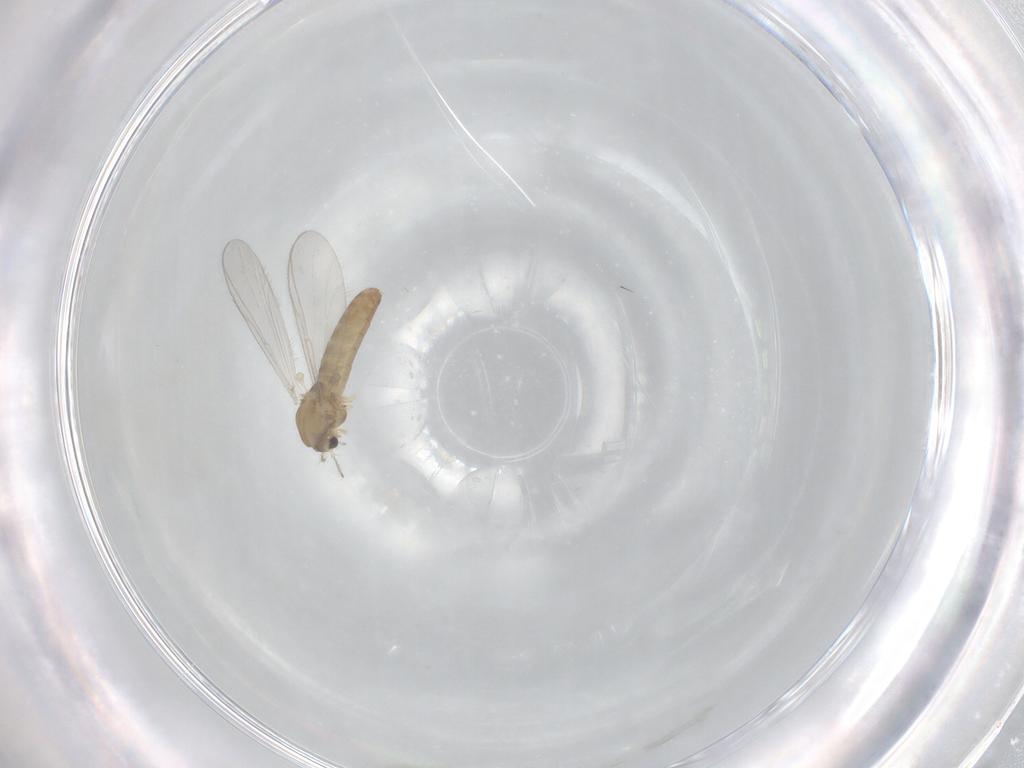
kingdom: Animalia
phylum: Arthropoda
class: Insecta
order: Diptera
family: Chironomidae
